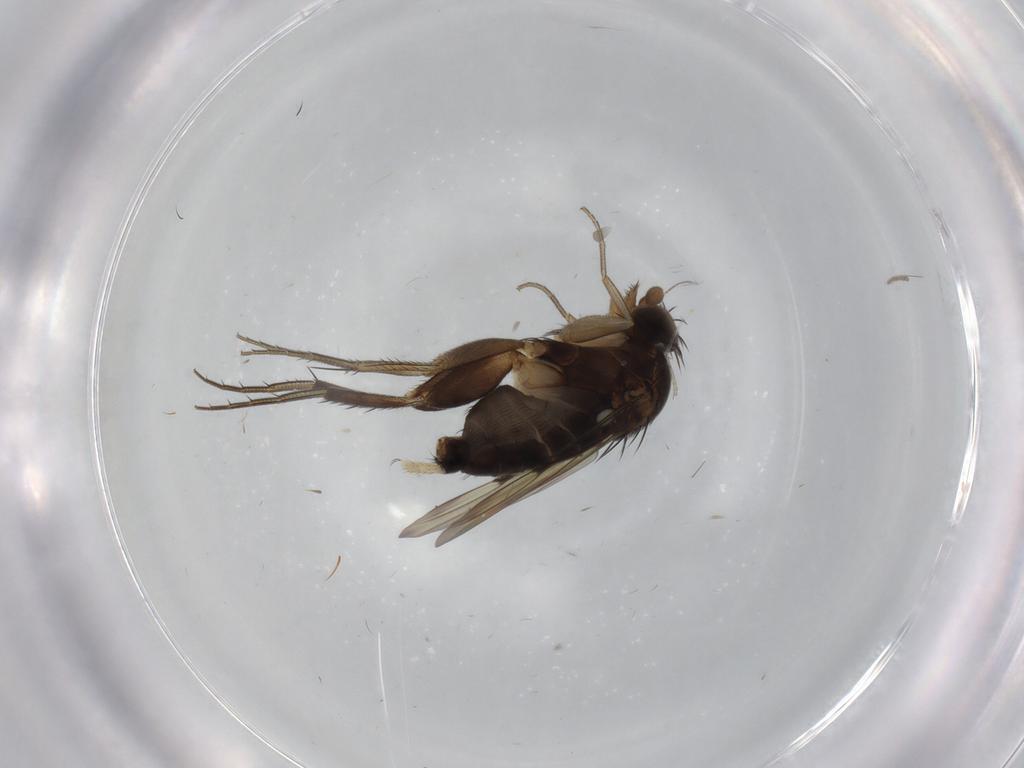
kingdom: Animalia
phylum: Arthropoda
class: Insecta
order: Diptera
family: Phoridae
